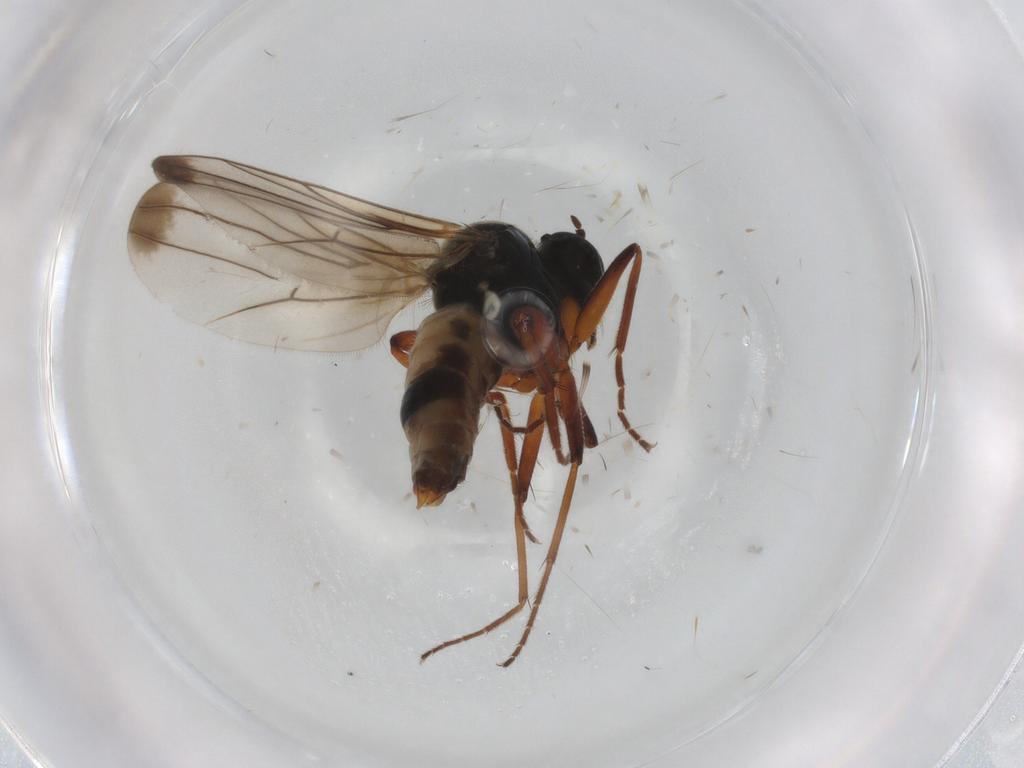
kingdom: Animalia
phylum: Arthropoda
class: Insecta
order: Diptera
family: Hybotidae
